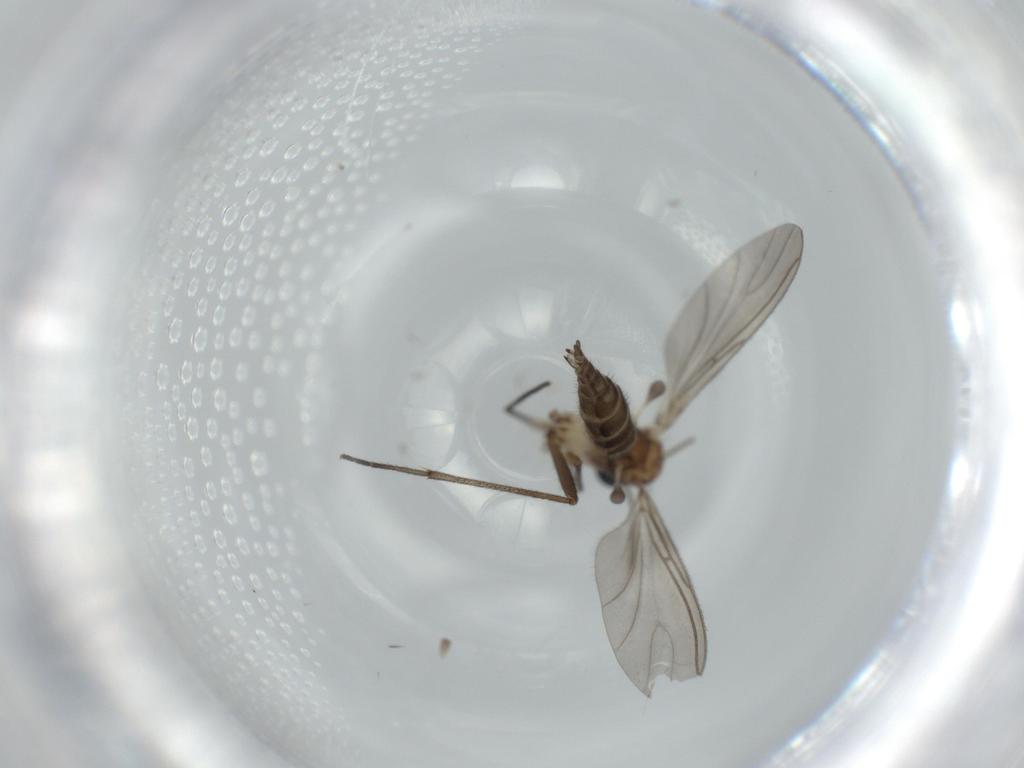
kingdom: Animalia
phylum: Arthropoda
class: Insecta
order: Diptera
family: Sciaridae
